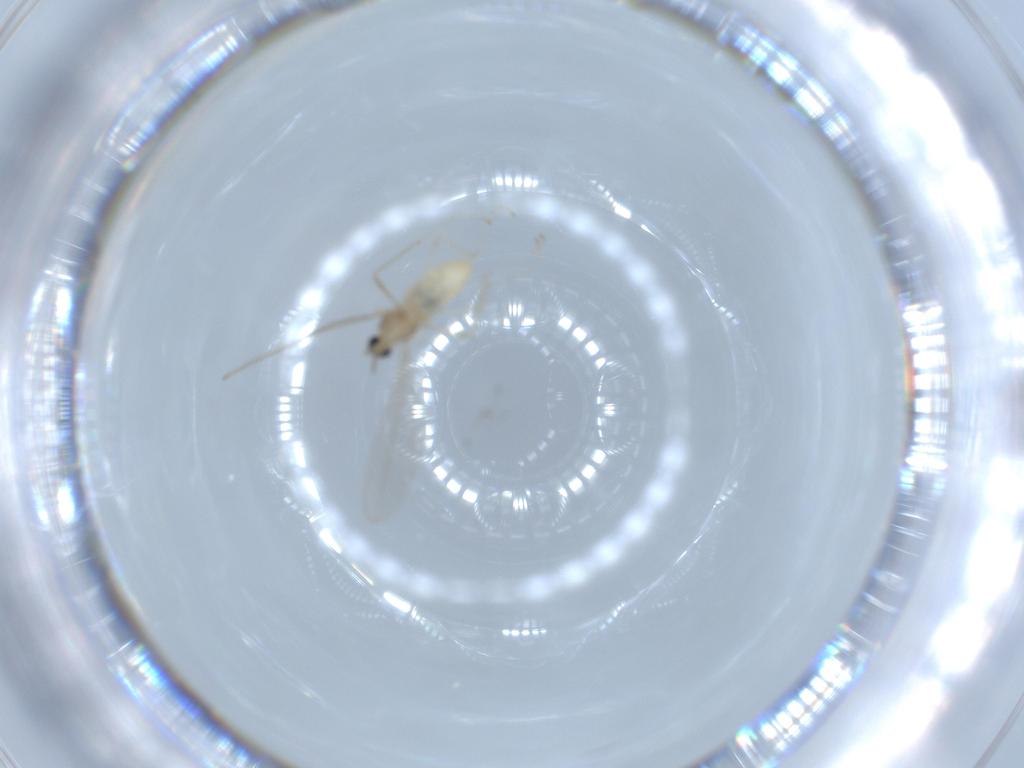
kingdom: Animalia
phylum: Arthropoda
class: Insecta
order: Diptera
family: Cecidomyiidae
